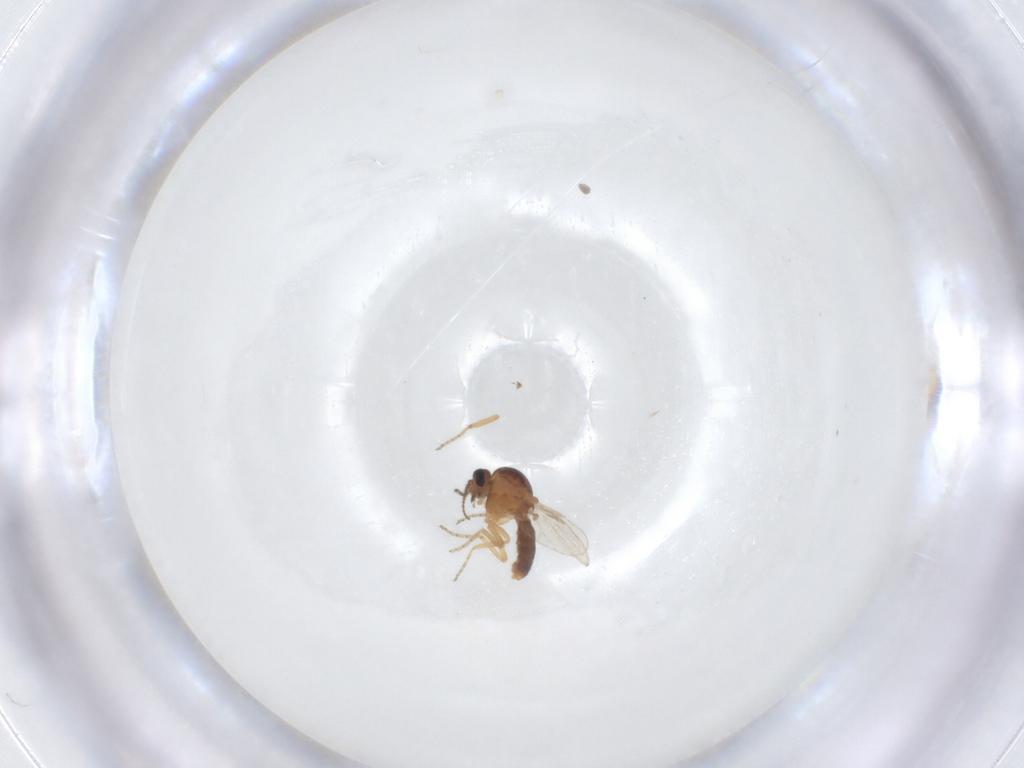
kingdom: Animalia
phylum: Arthropoda
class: Insecta
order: Diptera
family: Ceratopogonidae
